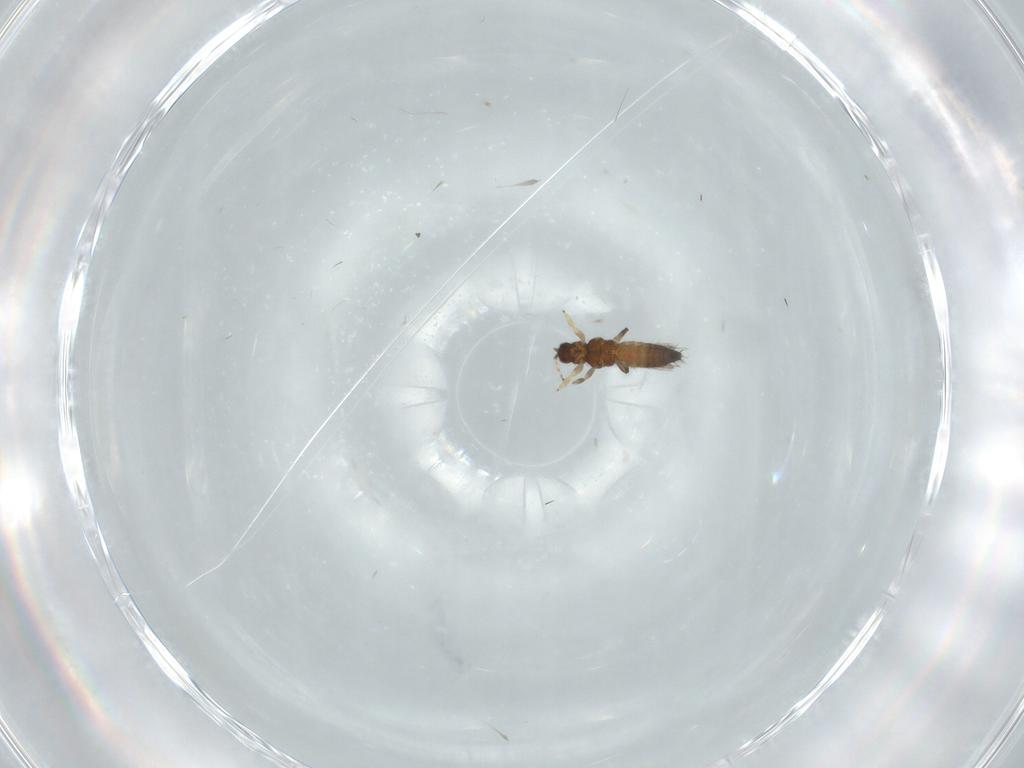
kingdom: Animalia
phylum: Arthropoda
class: Insecta
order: Thysanoptera
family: Thripidae
